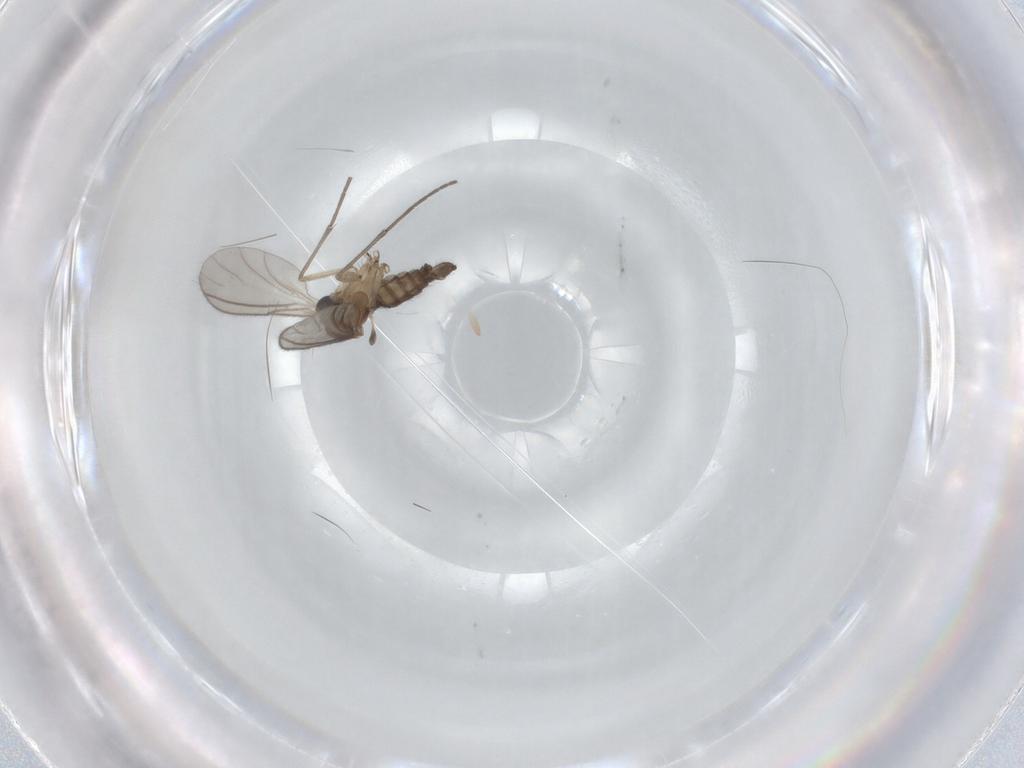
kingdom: Animalia
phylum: Arthropoda
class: Insecta
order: Diptera
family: Sciaridae
